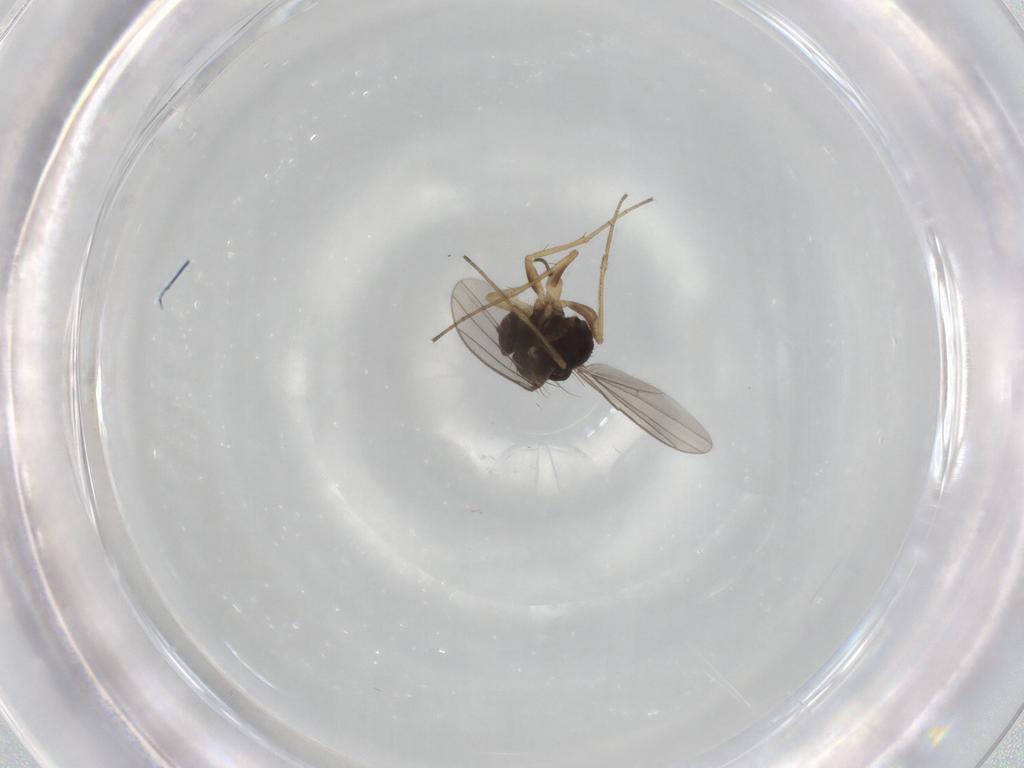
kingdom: Animalia
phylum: Arthropoda
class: Insecta
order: Diptera
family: Dolichopodidae
